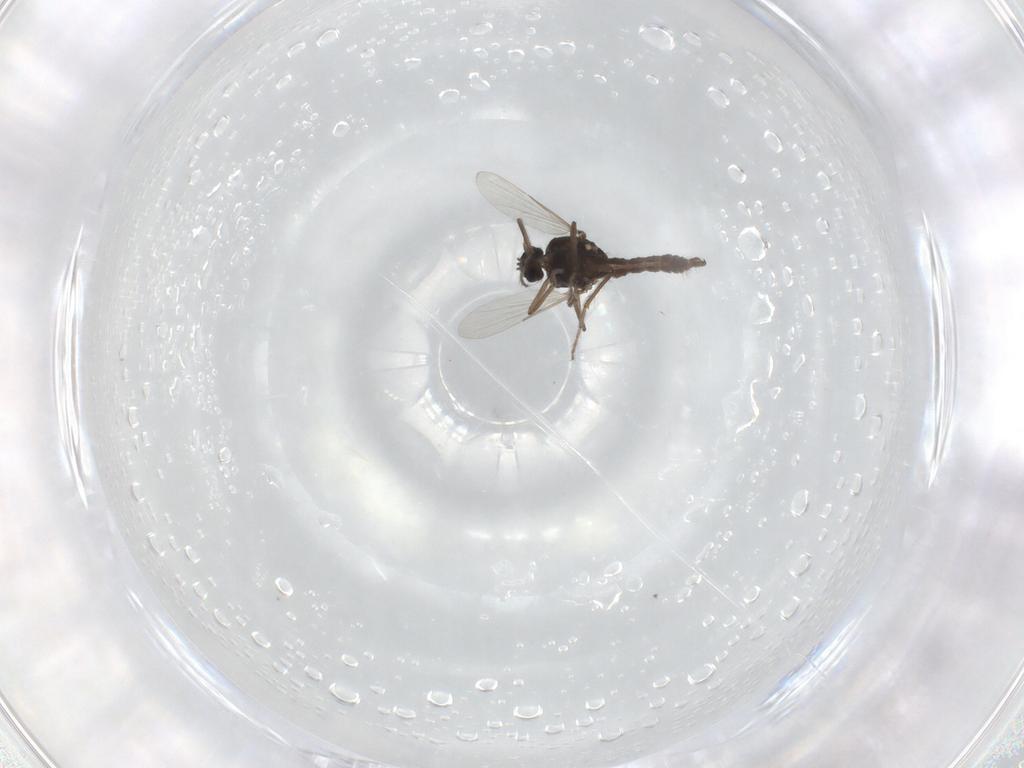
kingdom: Animalia
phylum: Arthropoda
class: Insecta
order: Diptera
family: Ceratopogonidae
